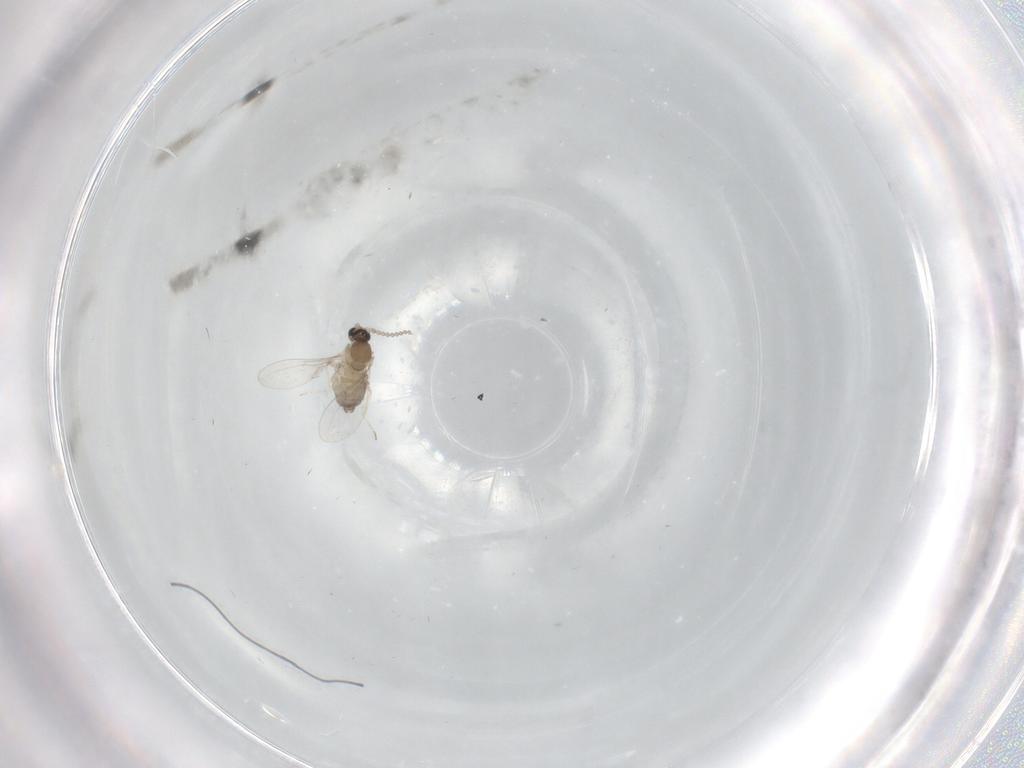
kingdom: Animalia
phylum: Arthropoda
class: Insecta
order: Diptera
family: Cecidomyiidae
